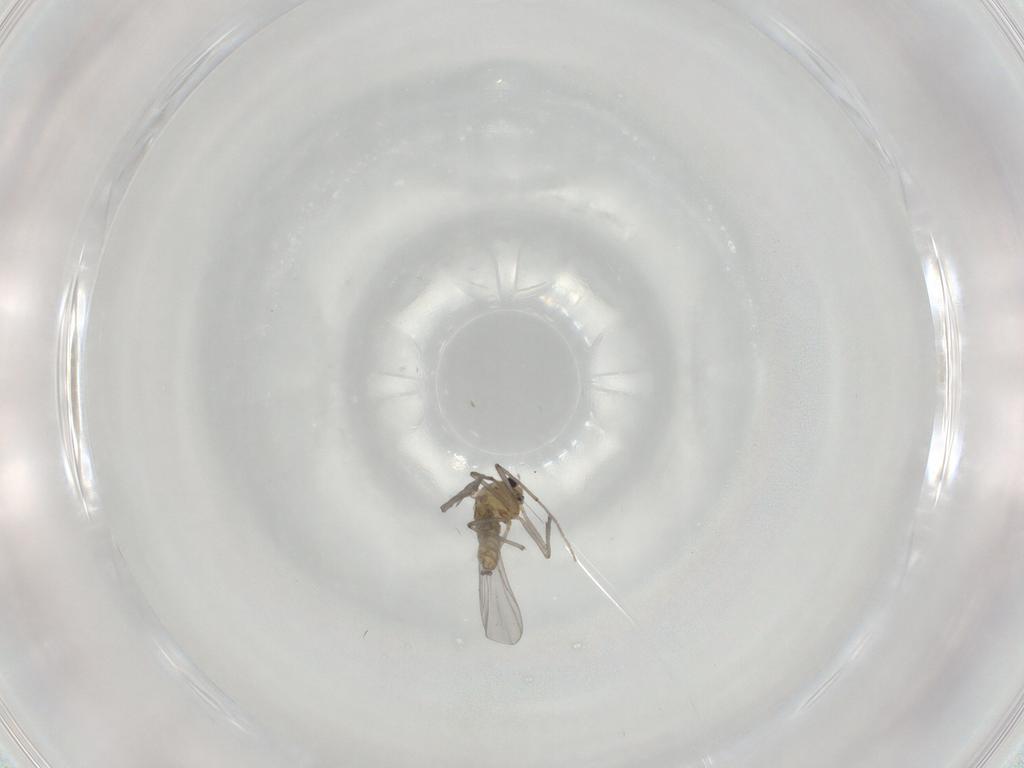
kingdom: Animalia
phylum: Arthropoda
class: Insecta
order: Diptera
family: Chironomidae
